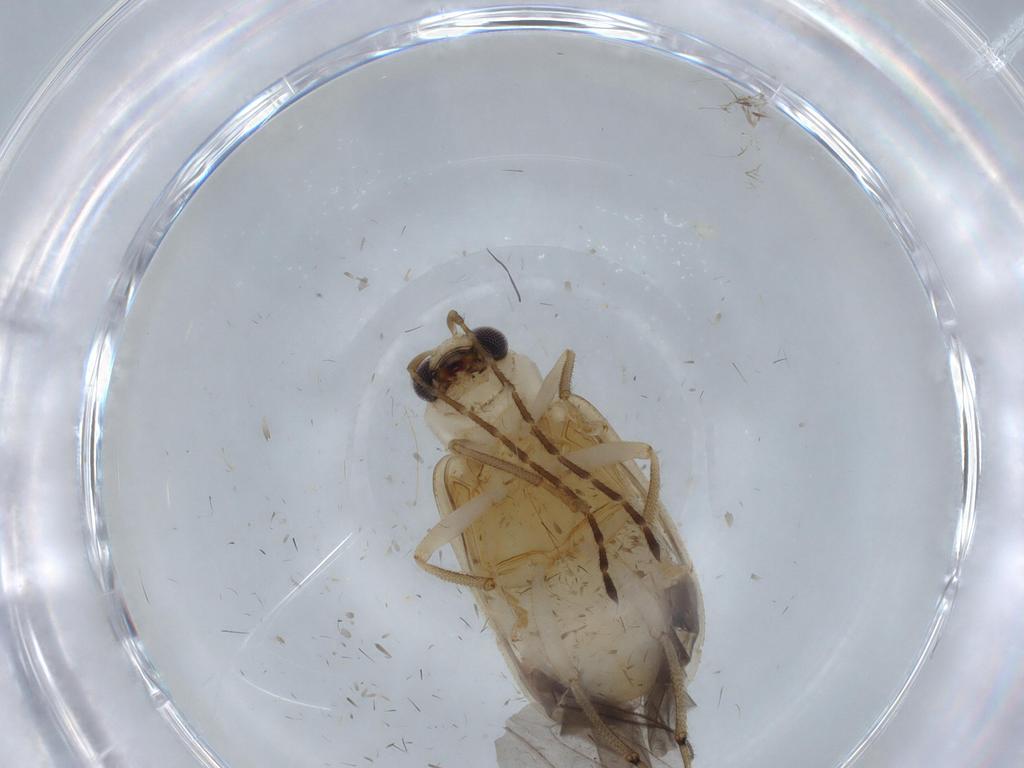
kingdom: Animalia
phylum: Arthropoda
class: Insecta
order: Coleoptera
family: Chrysomelidae
